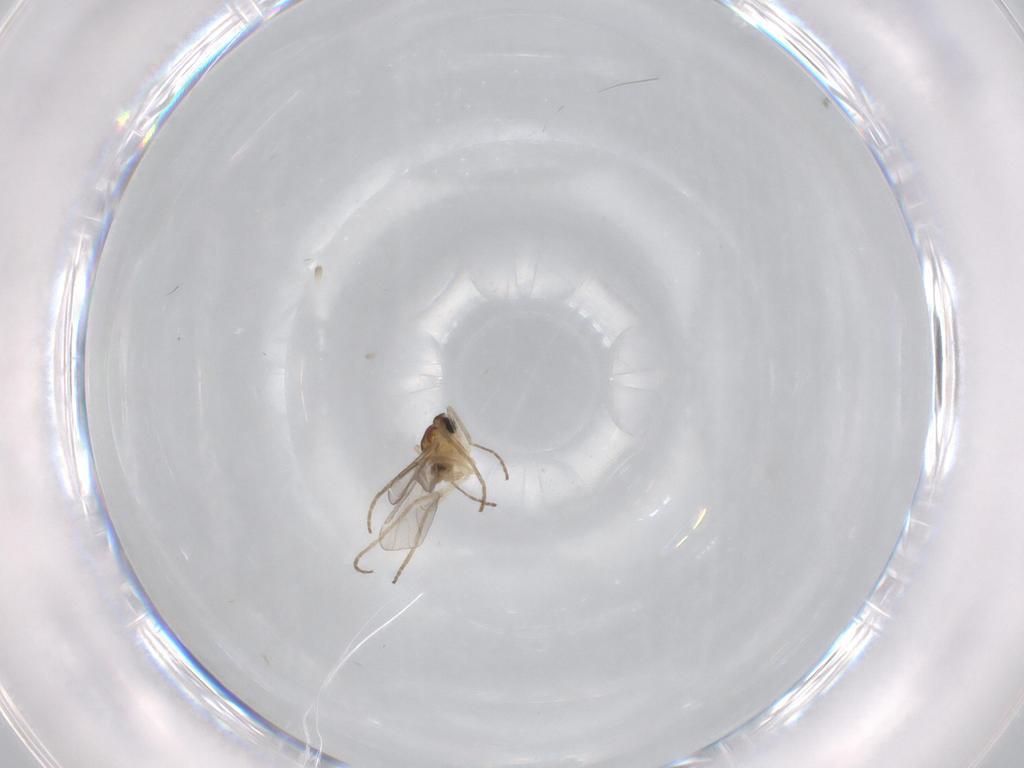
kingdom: Animalia
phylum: Arthropoda
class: Insecta
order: Diptera
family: Cecidomyiidae
